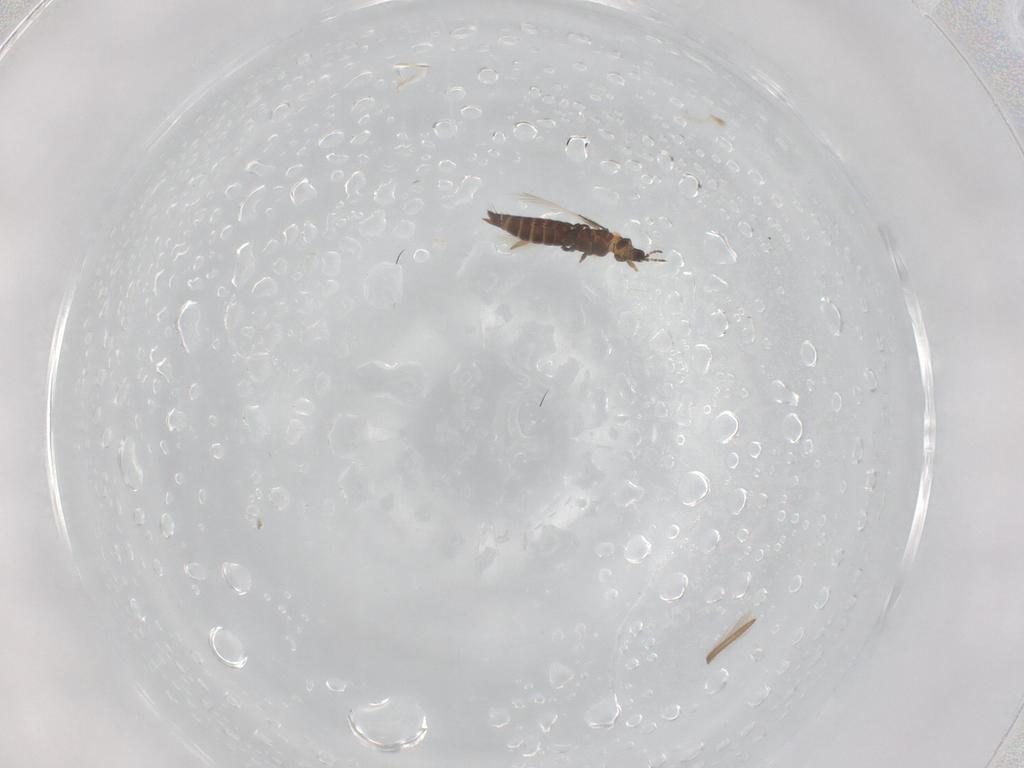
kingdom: Animalia
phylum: Arthropoda
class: Insecta
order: Thysanoptera
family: Thripidae
